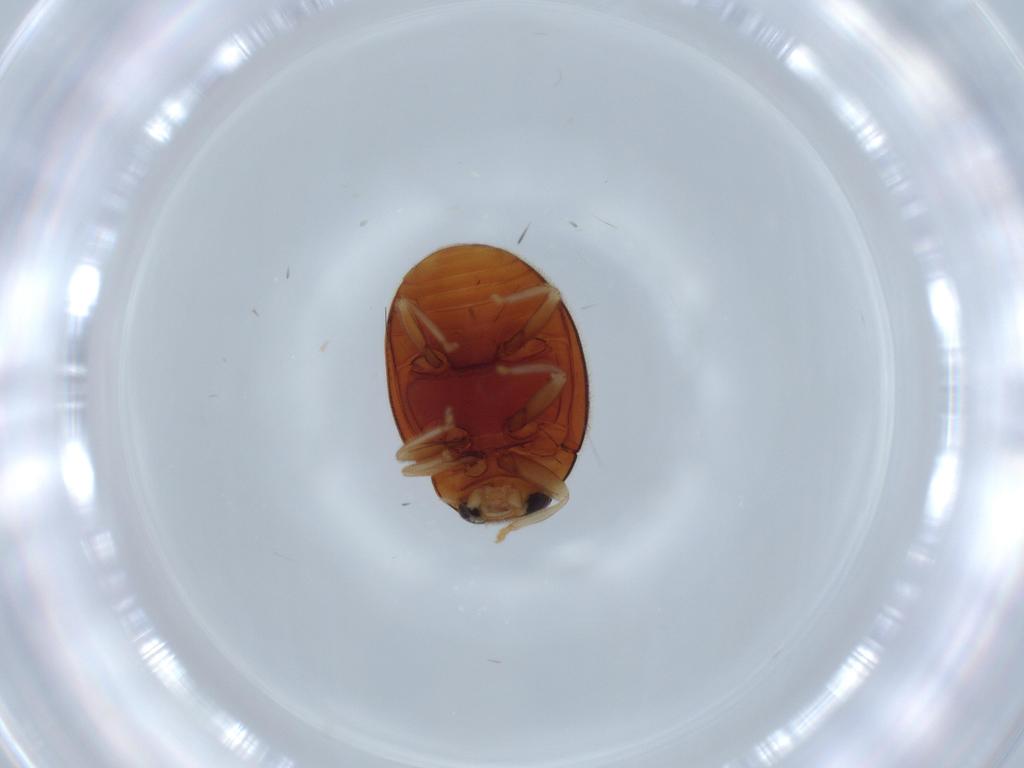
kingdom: Animalia
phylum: Arthropoda
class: Insecta
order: Coleoptera
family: Coccinellidae
